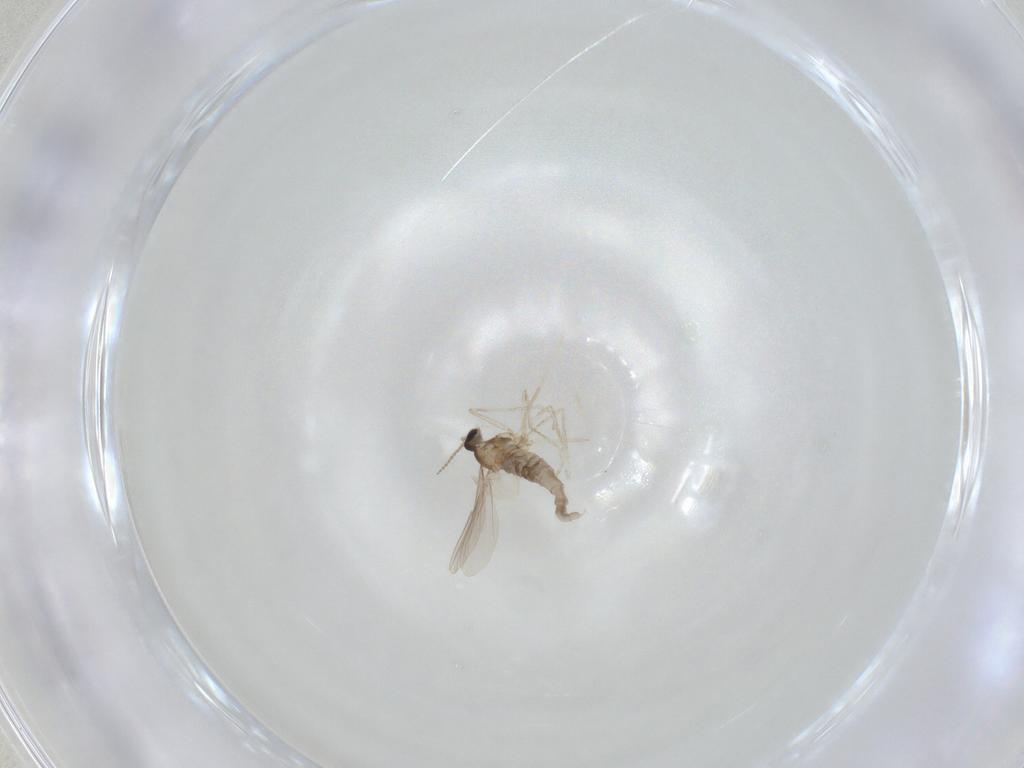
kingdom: Animalia
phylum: Arthropoda
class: Insecta
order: Diptera
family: Cecidomyiidae
